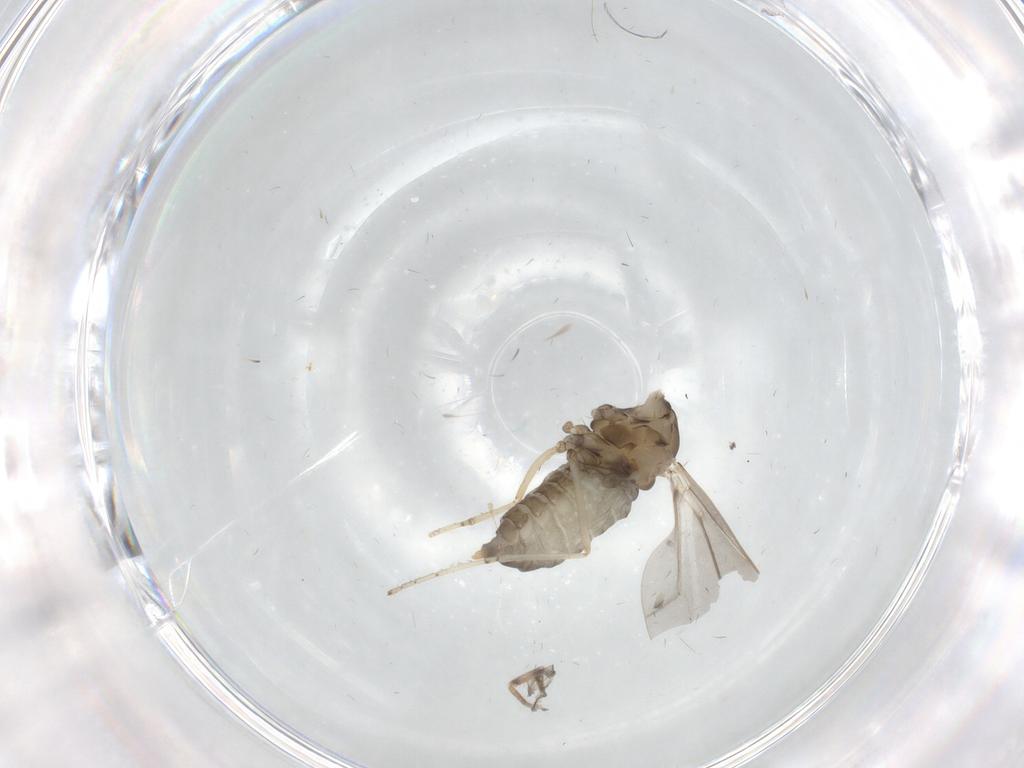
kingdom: Animalia
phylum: Arthropoda
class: Insecta
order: Diptera
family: Cecidomyiidae
